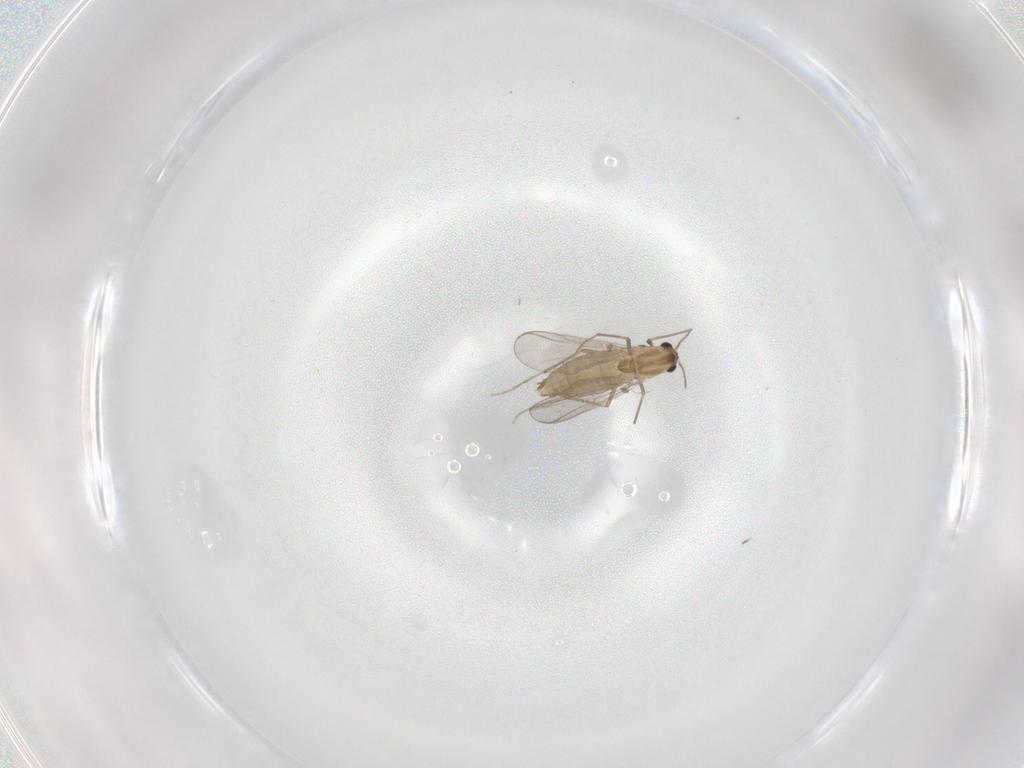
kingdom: Animalia
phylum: Arthropoda
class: Insecta
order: Diptera
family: Chironomidae
